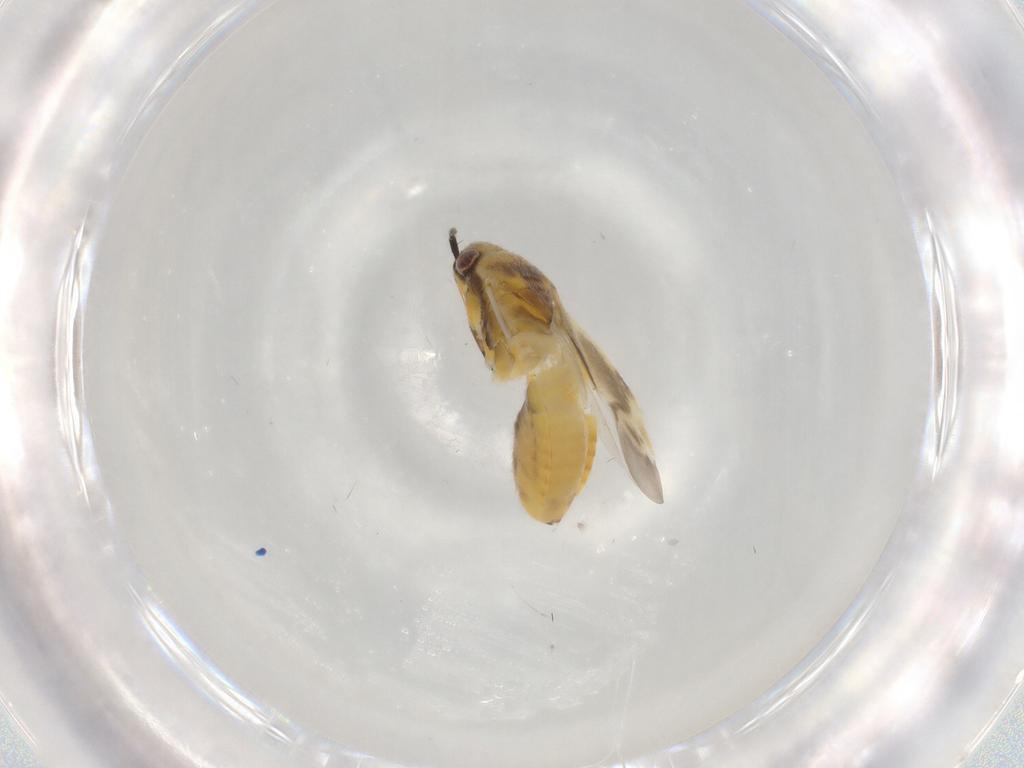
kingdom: Animalia
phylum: Arthropoda
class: Insecta
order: Hemiptera
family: Miridae
